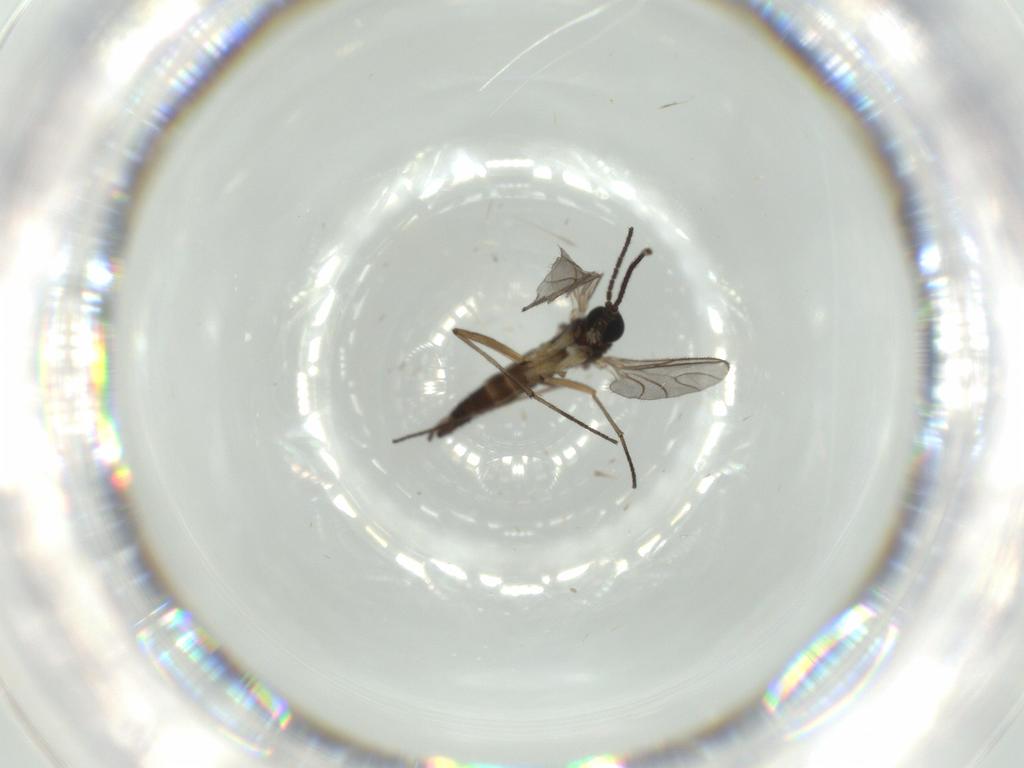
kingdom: Animalia
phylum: Arthropoda
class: Insecta
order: Diptera
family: Sciaridae
